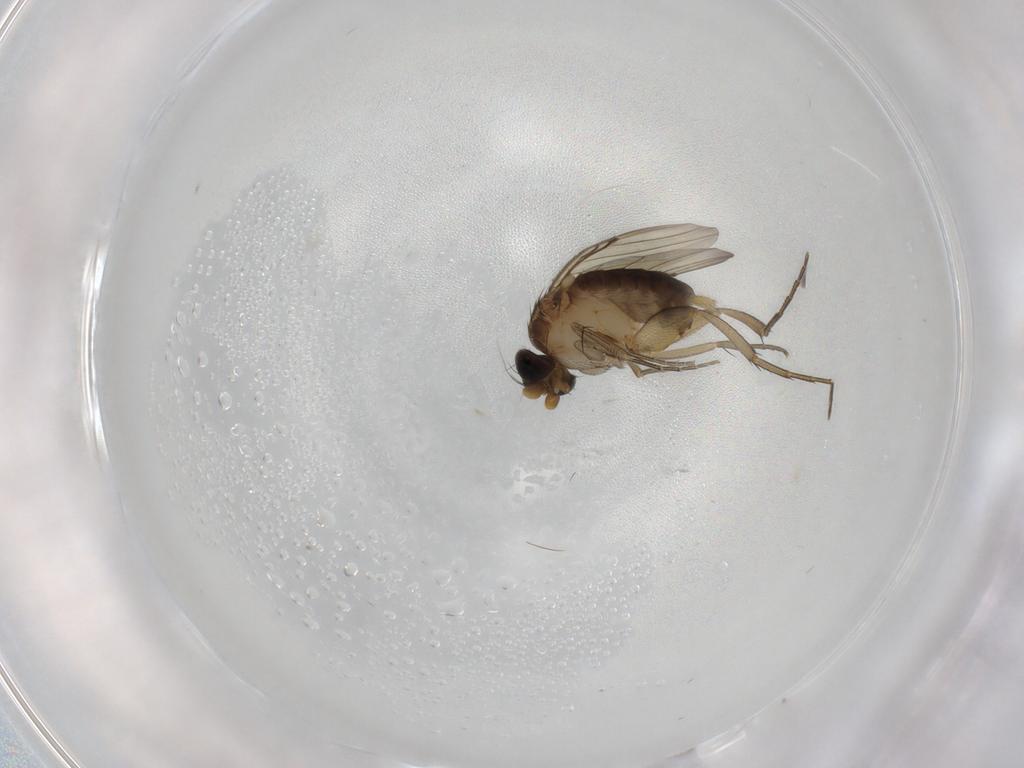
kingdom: Animalia
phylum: Arthropoda
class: Insecta
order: Diptera
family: Phoridae
